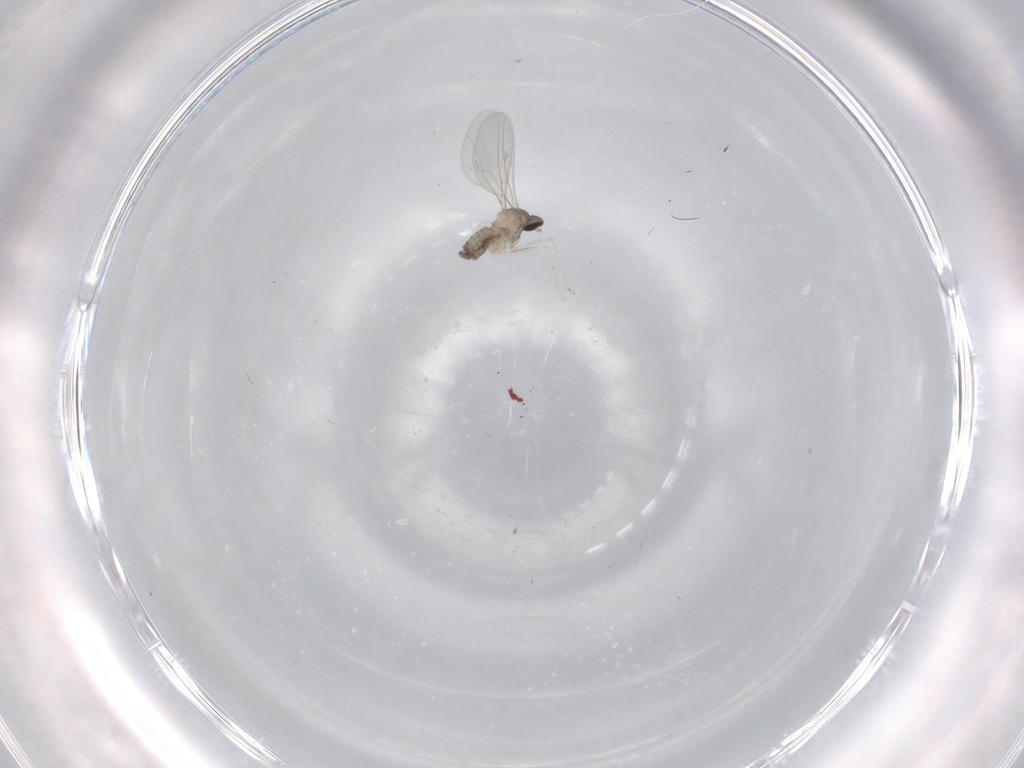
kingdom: Animalia
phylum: Arthropoda
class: Insecta
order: Diptera
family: Cecidomyiidae
